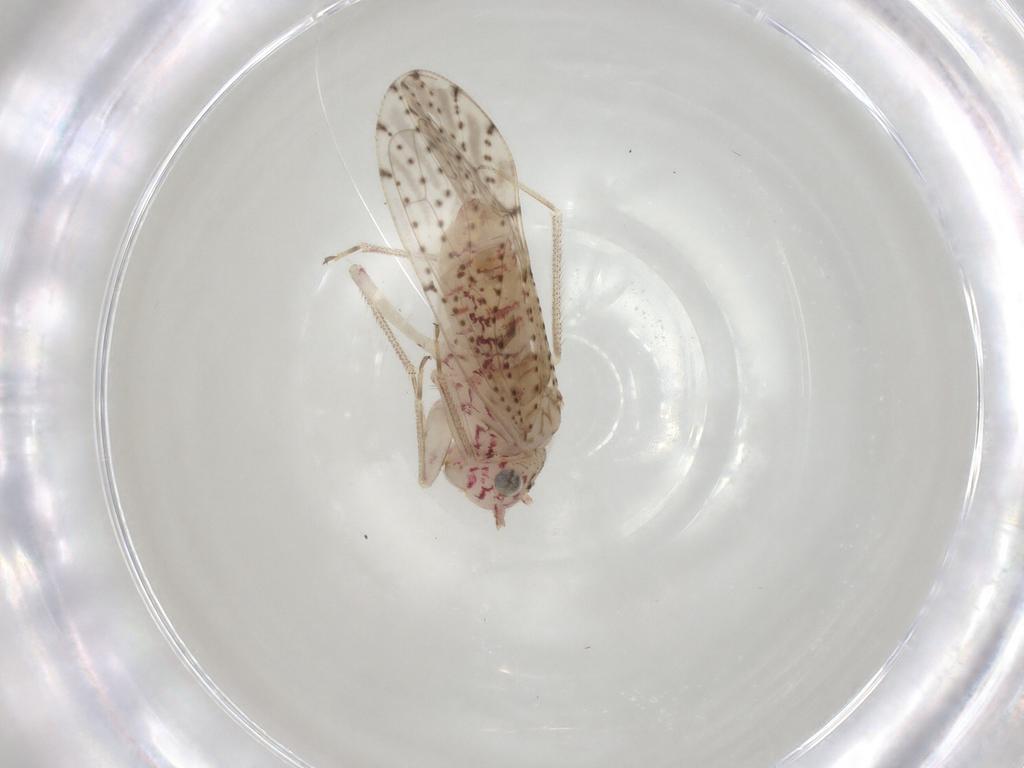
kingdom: Animalia
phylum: Arthropoda
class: Insecta
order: Psocodea
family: Philotarsidae
